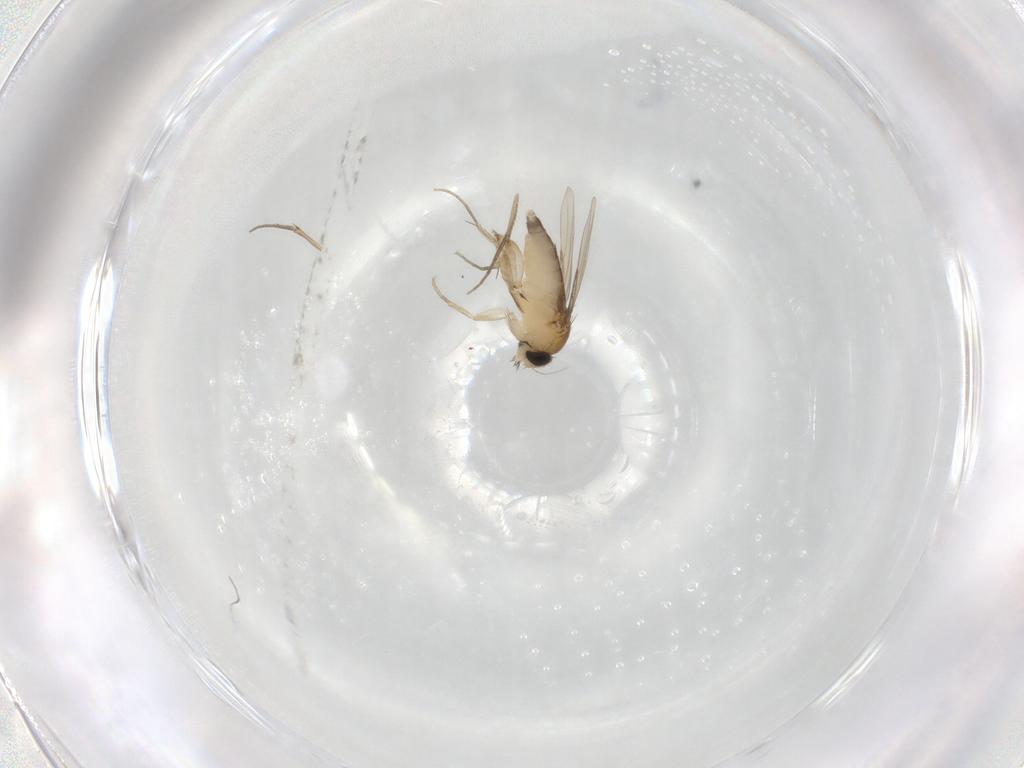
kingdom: Animalia
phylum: Arthropoda
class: Insecta
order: Diptera
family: Phoridae
